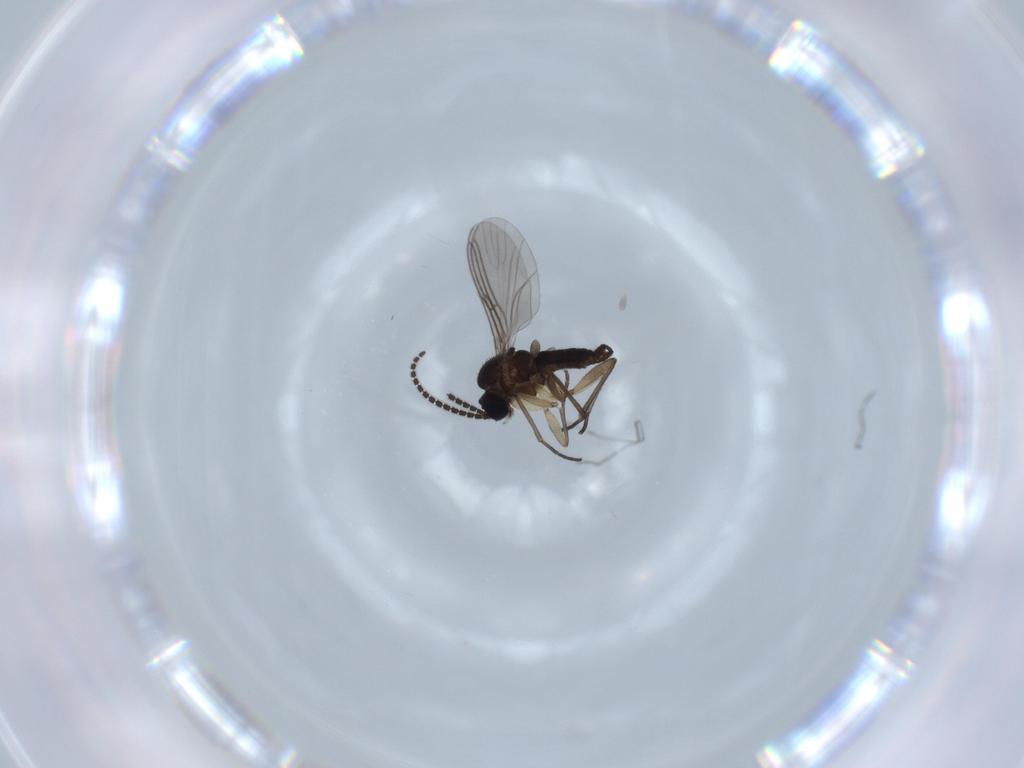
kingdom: Animalia
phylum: Arthropoda
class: Insecta
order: Diptera
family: Sciaridae
